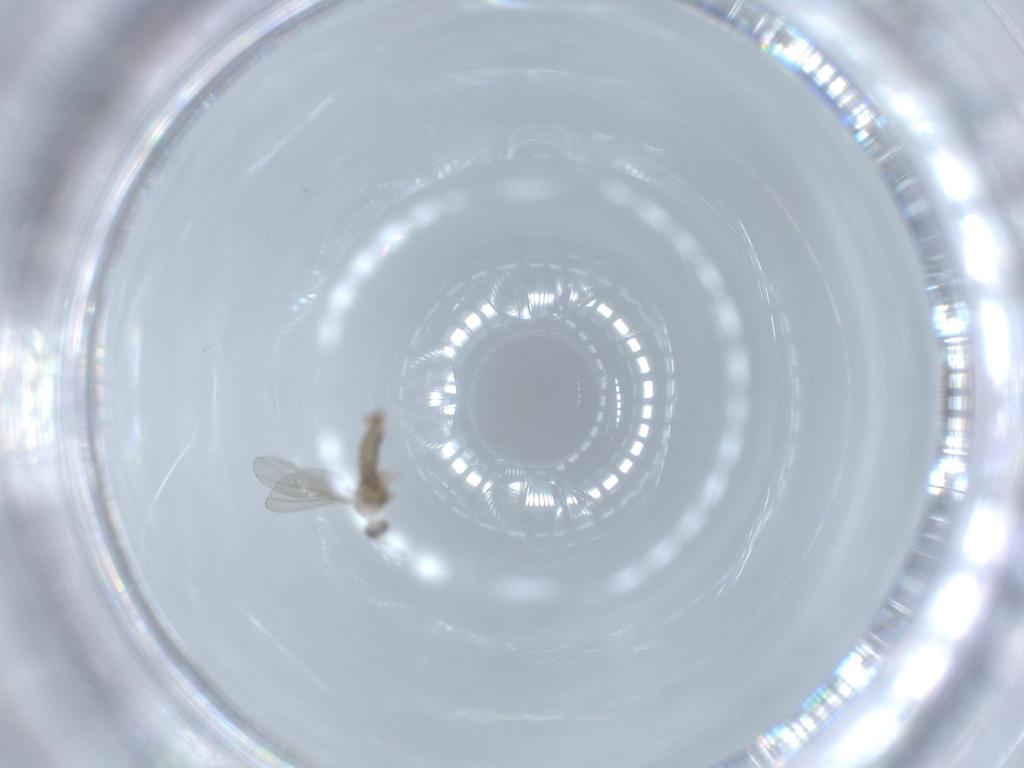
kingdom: Animalia
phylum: Arthropoda
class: Insecta
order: Diptera
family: Cecidomyiidae
